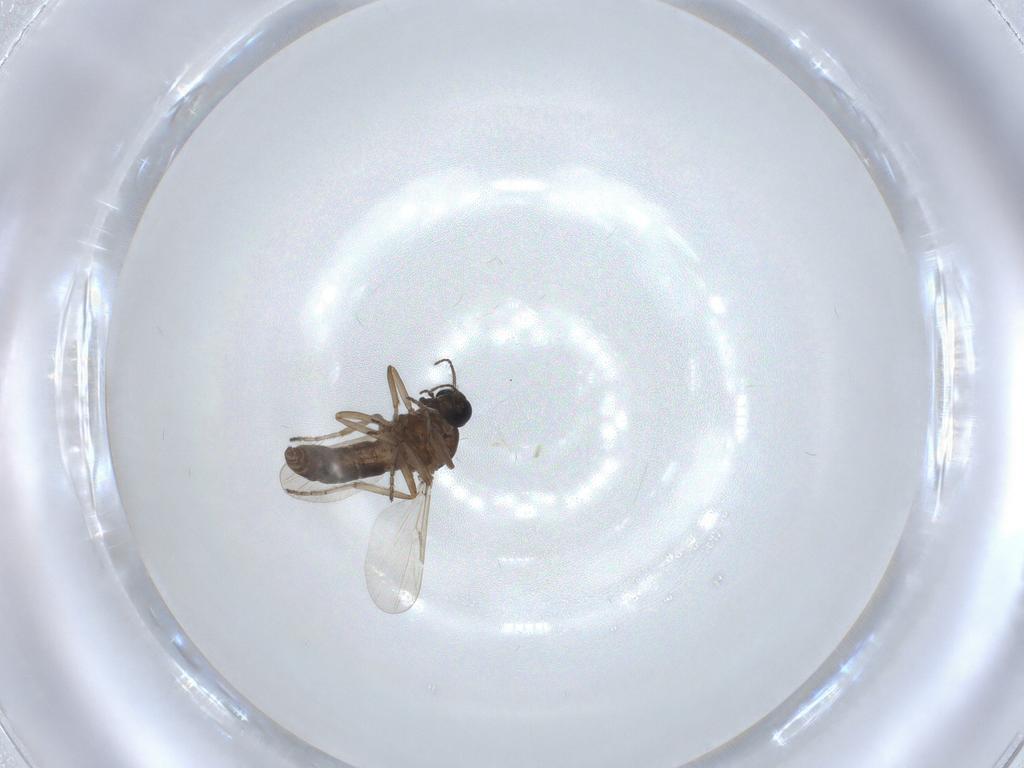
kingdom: Animalia
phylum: Arthropoda
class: Insecta
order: Diptera
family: Ceratopogonidae
